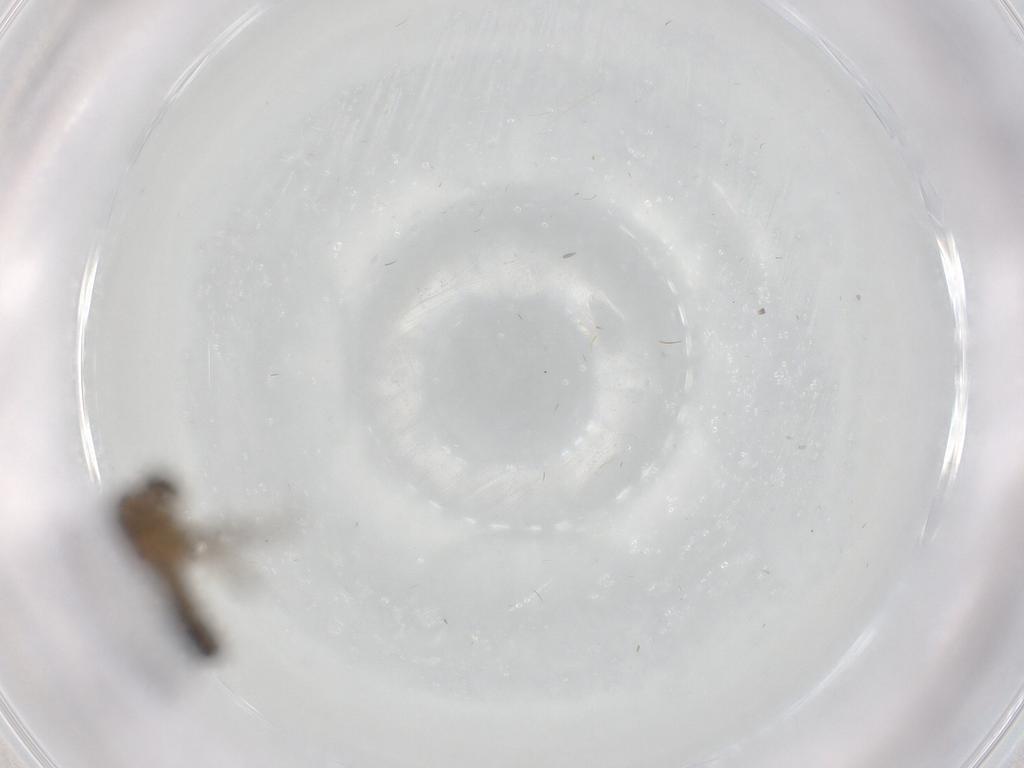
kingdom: Animalia
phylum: Arthropoda
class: Insecta
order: Diptera
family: Chironomidae
